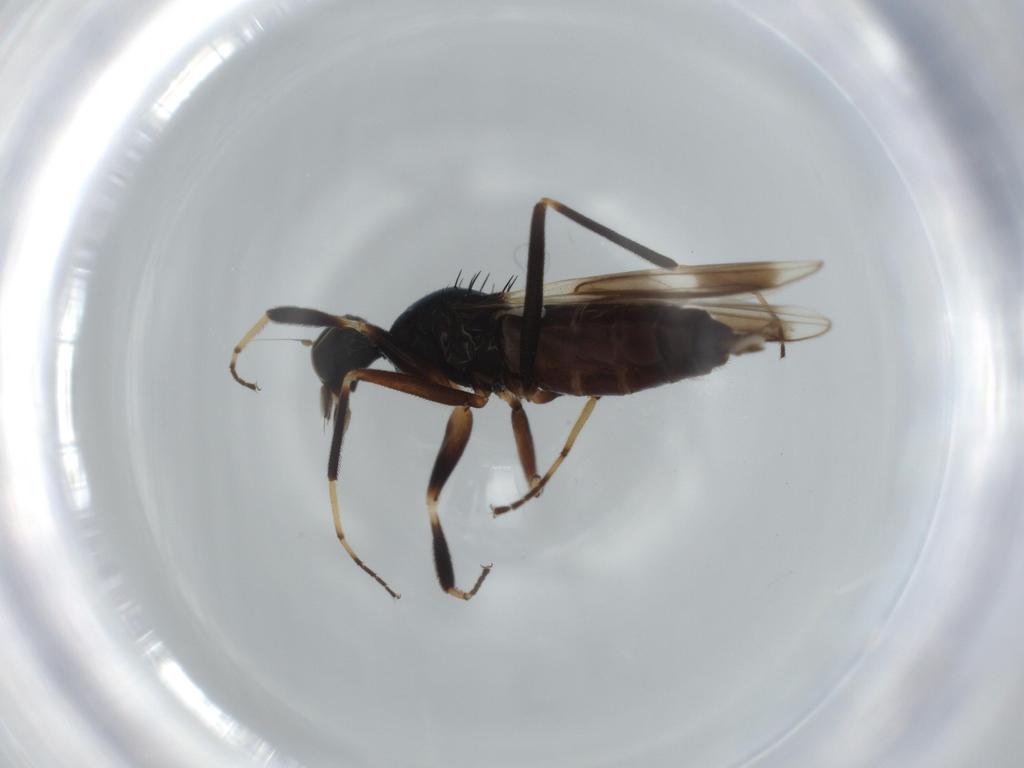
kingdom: Animalia
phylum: Arthropoda
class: Insecta
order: Diptera
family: Hybotidae
